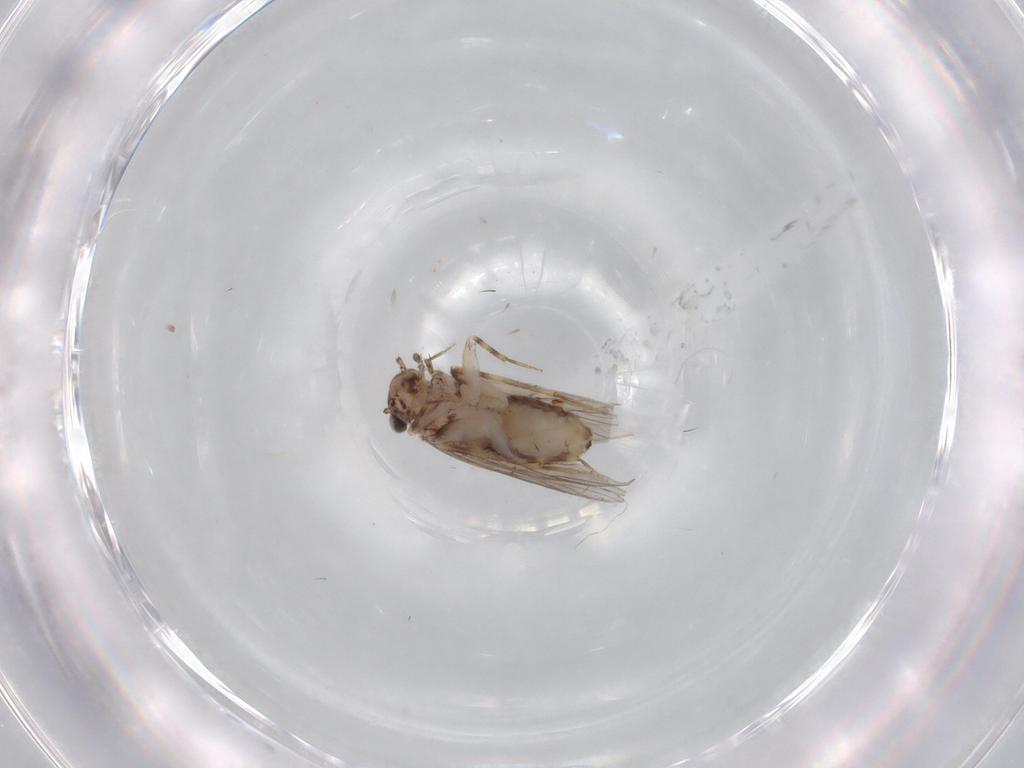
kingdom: Animalia
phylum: Arthropoda
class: Insecta
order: Psocodea
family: Lepidopsocidae
